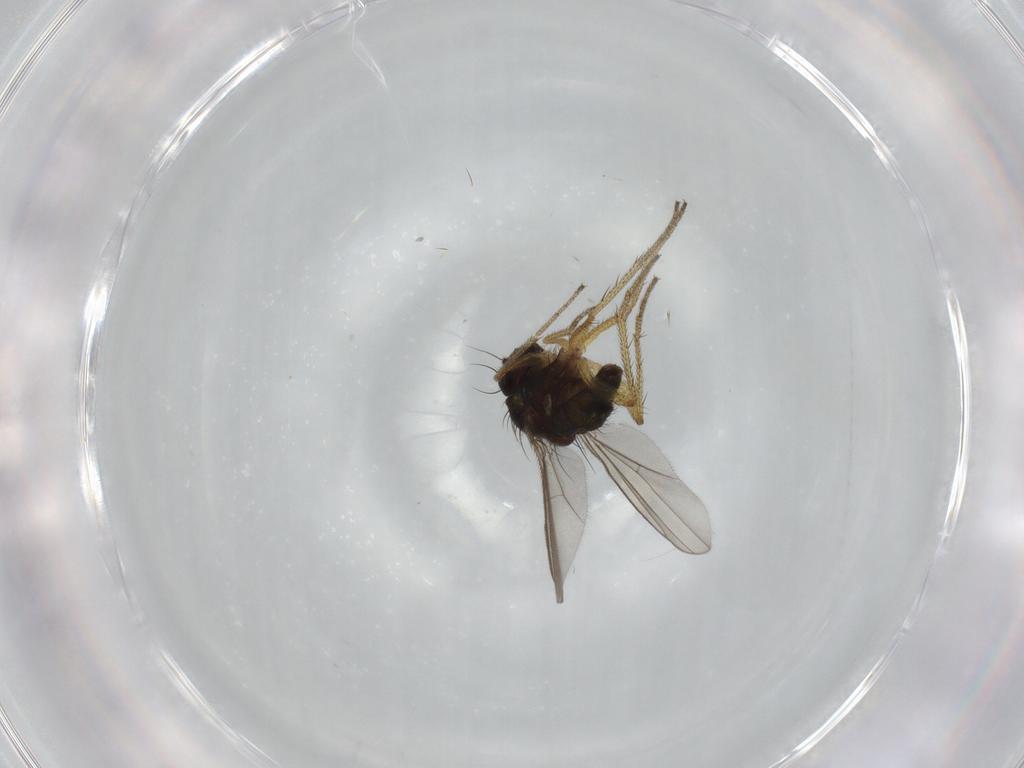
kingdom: Animalia
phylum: Arthropoda
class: Insecta
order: Diptera
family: Dolichopodidae
